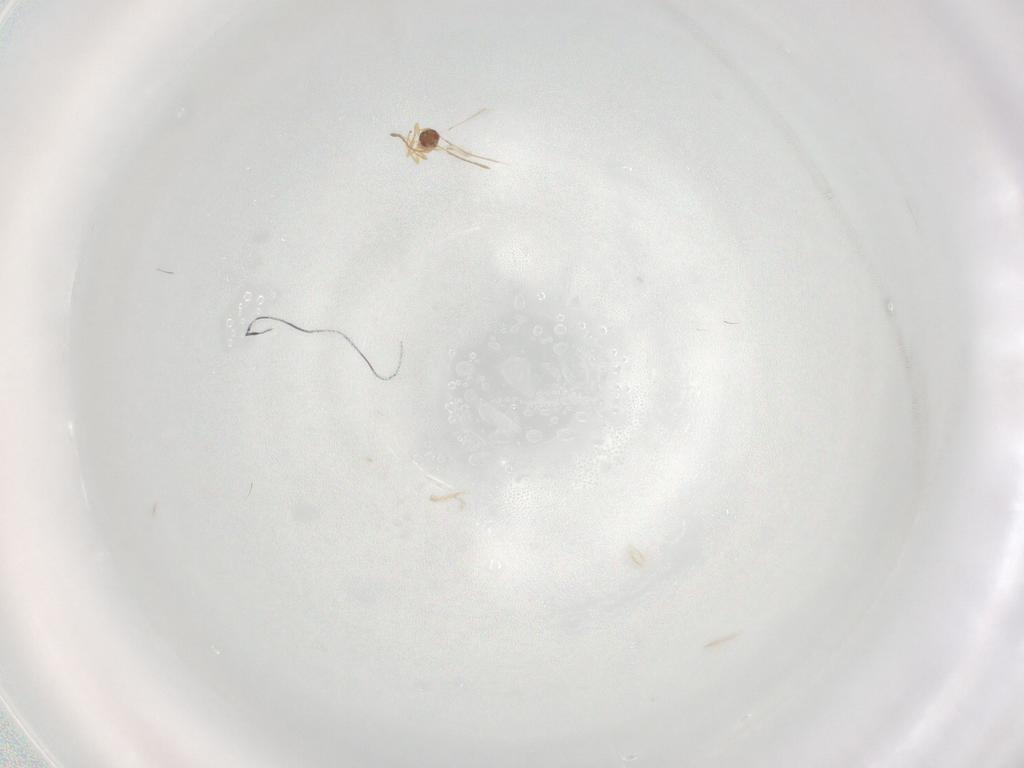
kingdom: Animalia
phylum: Arthropoda
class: Insecta
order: Hymenoptera
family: Mymaridae
